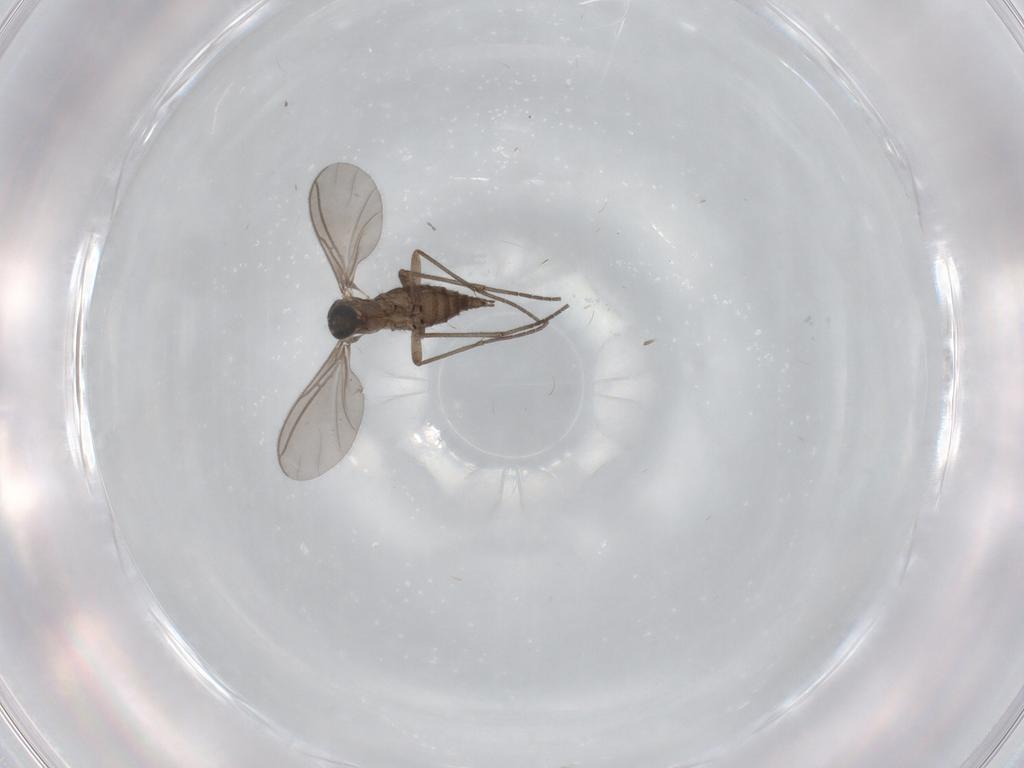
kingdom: Animalia
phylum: Arthropoda
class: Insecta
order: Diptera
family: Sciaridae
